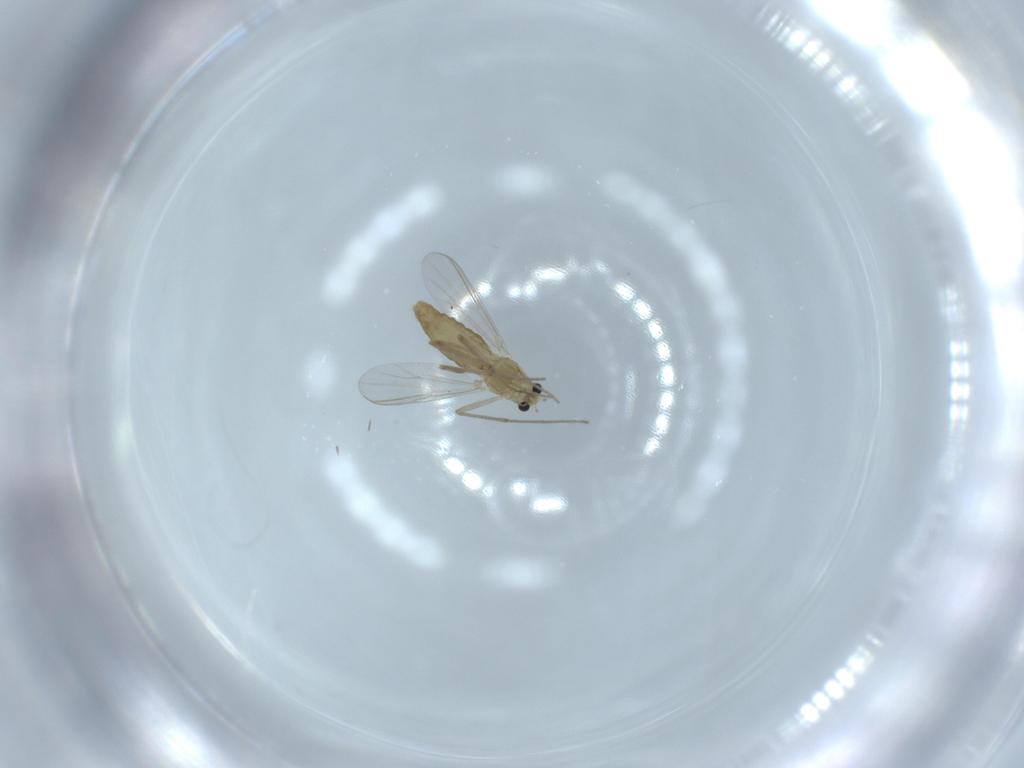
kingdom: Animalia
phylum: Arthropoda
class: Insecta
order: Diptera
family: Chironomidae
